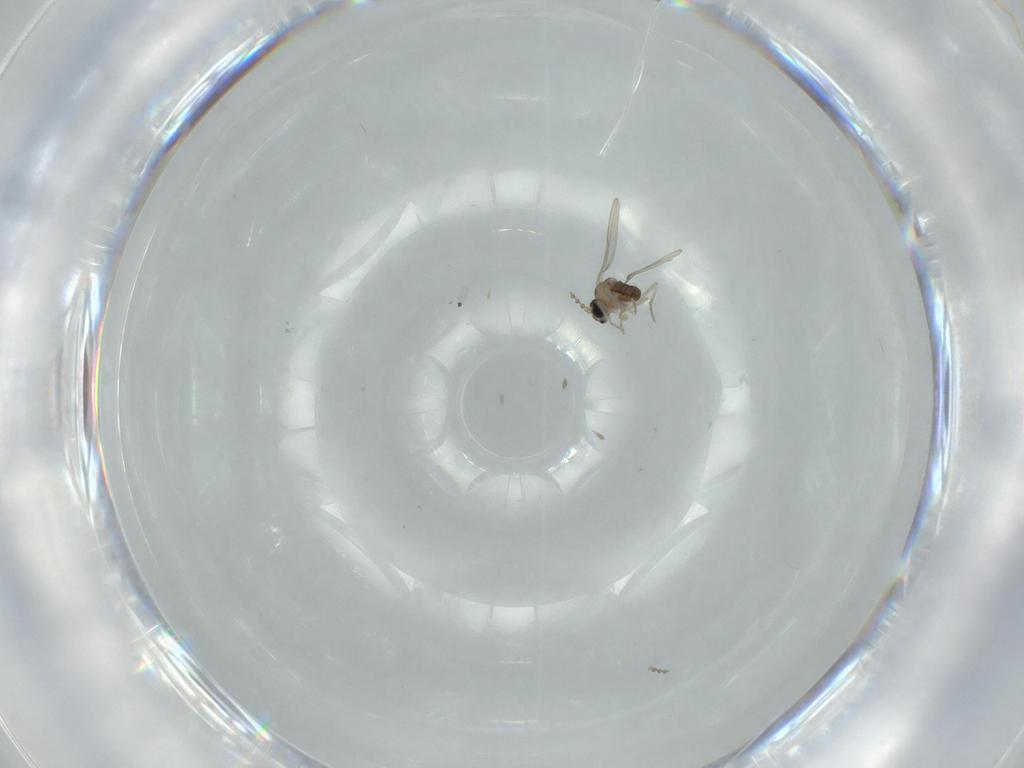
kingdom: Animalia
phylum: Arthropoda
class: Insecta
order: Diptera
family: Cecidomyiidae
